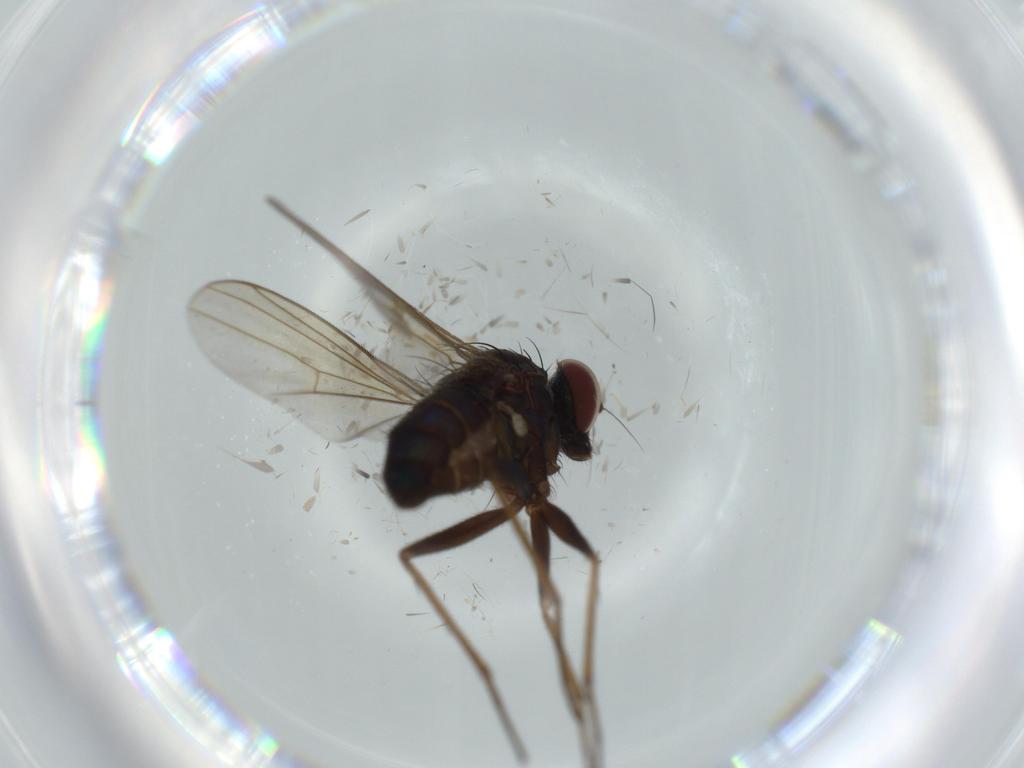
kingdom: Animalia
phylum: Arthropoda
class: Insecta
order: Diptera
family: Dolichopodidae
